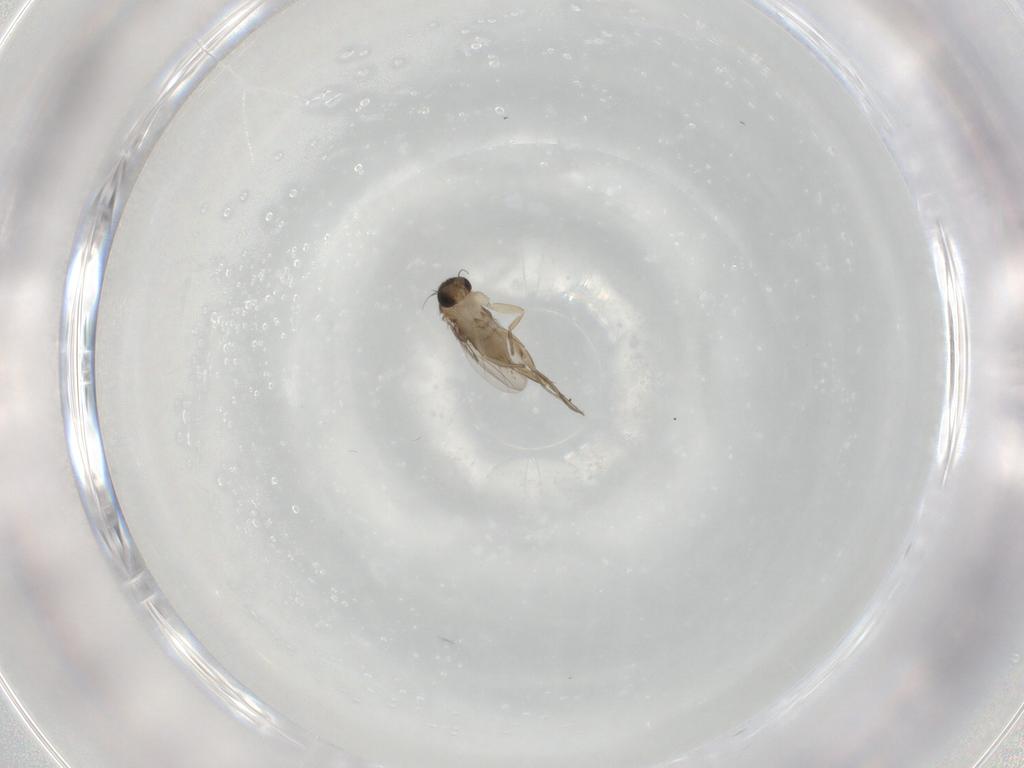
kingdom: Animalia
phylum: Arthropoda
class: Insecta
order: Diptera
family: Phoridae
